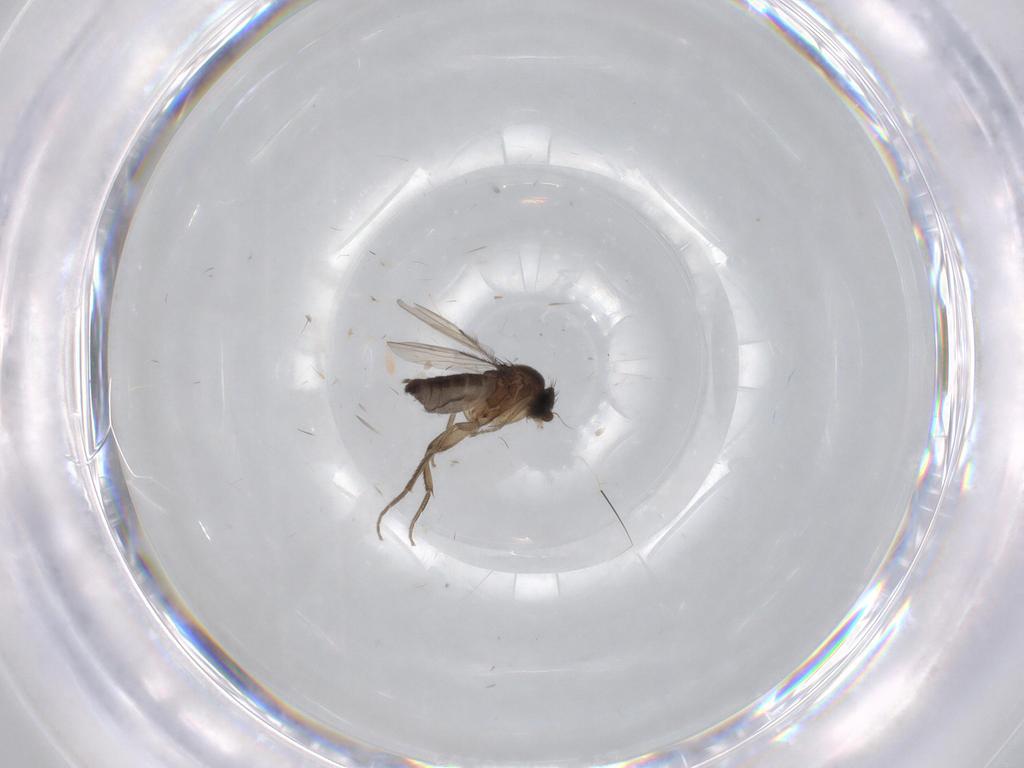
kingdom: Animalia
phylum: Arthropoda
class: Insecta
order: Diptera
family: Phoridae
